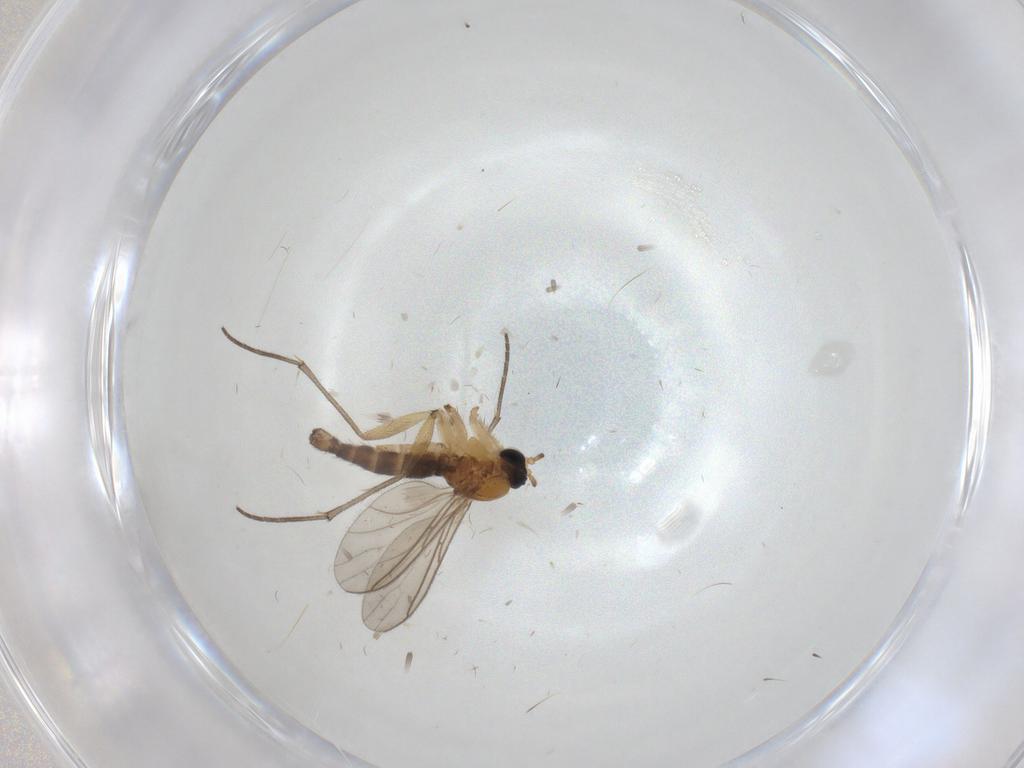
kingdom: Animalia
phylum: Arthropoda
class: Insecta
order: Diptera
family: Sciaridae
